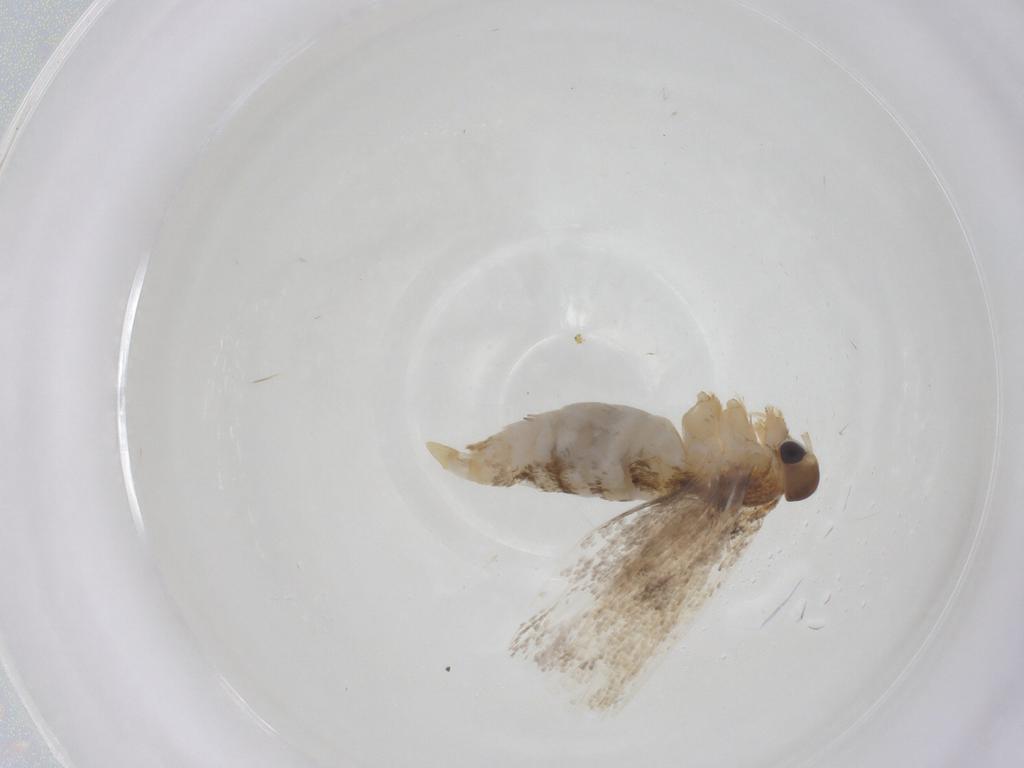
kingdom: Animalia
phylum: Arthropoda
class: Insecta
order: Lepidoptera
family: Oecophoridae
